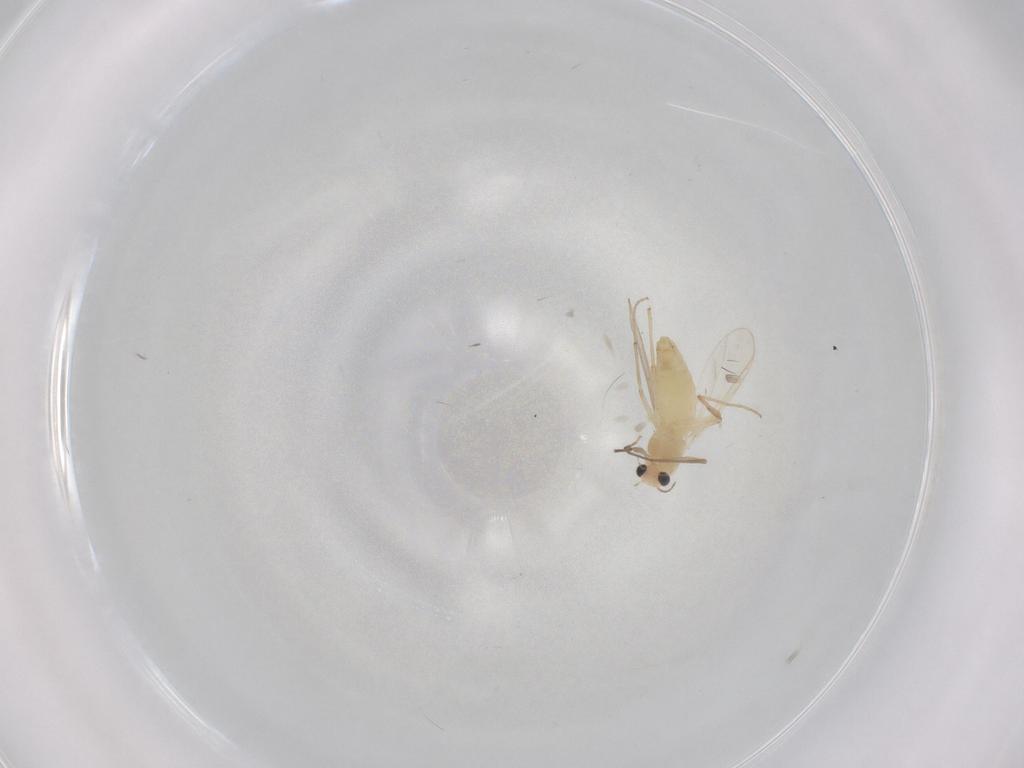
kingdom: Animalia
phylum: Arthropoda
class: Insecta
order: Diptera
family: Chironomidae
